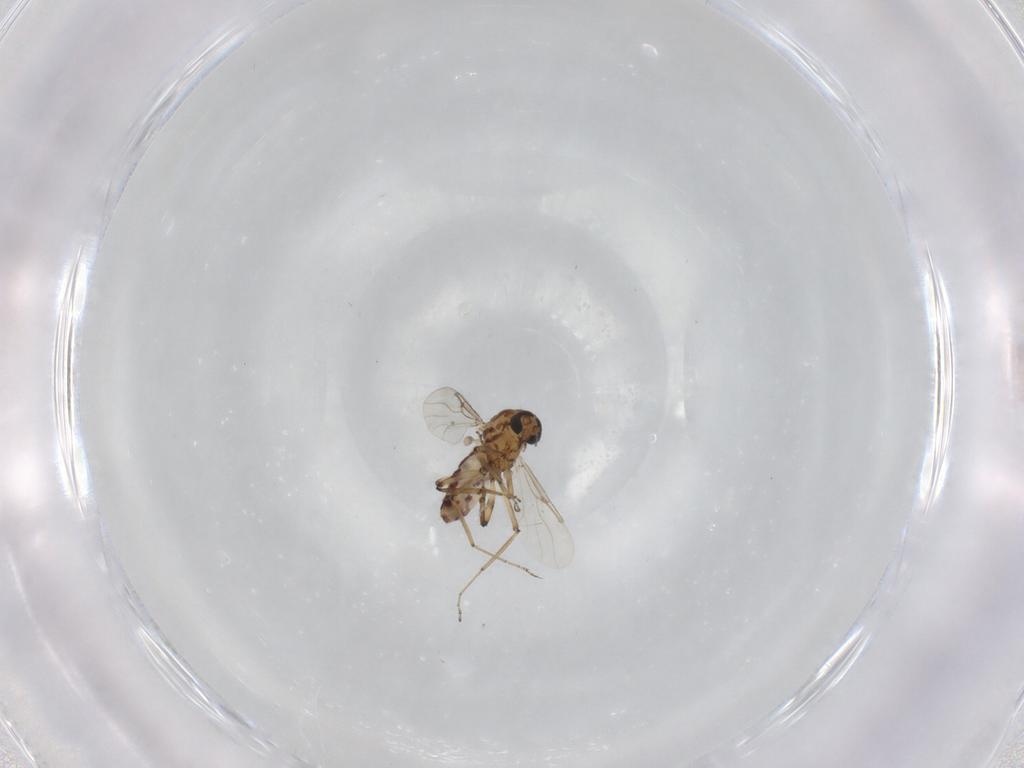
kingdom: Animalia
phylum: Arthropoda
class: Insecta
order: Diptera
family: Ceratopogonidae
